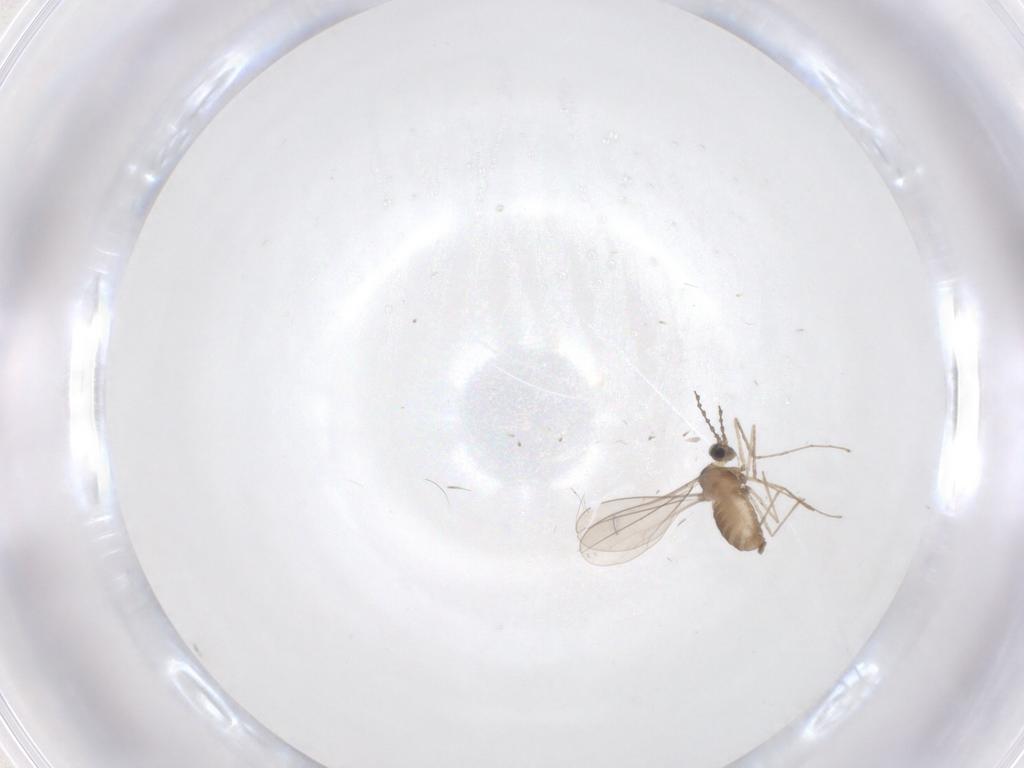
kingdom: Animalia
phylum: Arthropoda
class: Insecta
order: Diptera
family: Cecidomyiidae
